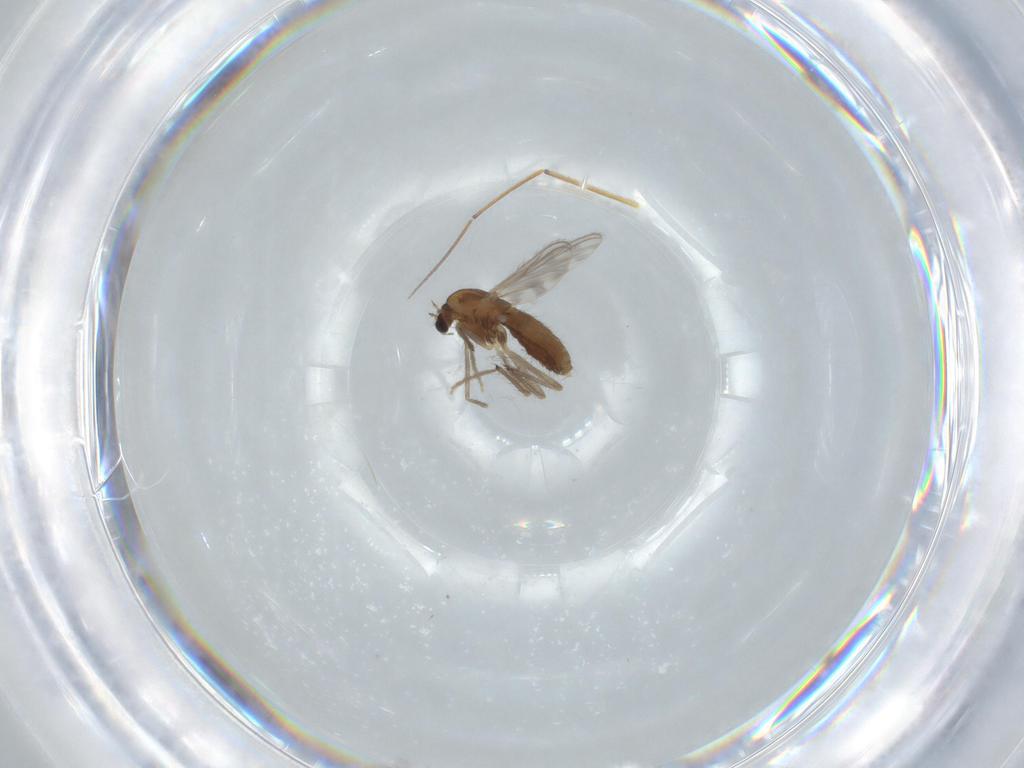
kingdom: Animalia
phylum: Arthropoda
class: Insecta
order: Diptera
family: Chironomidae
